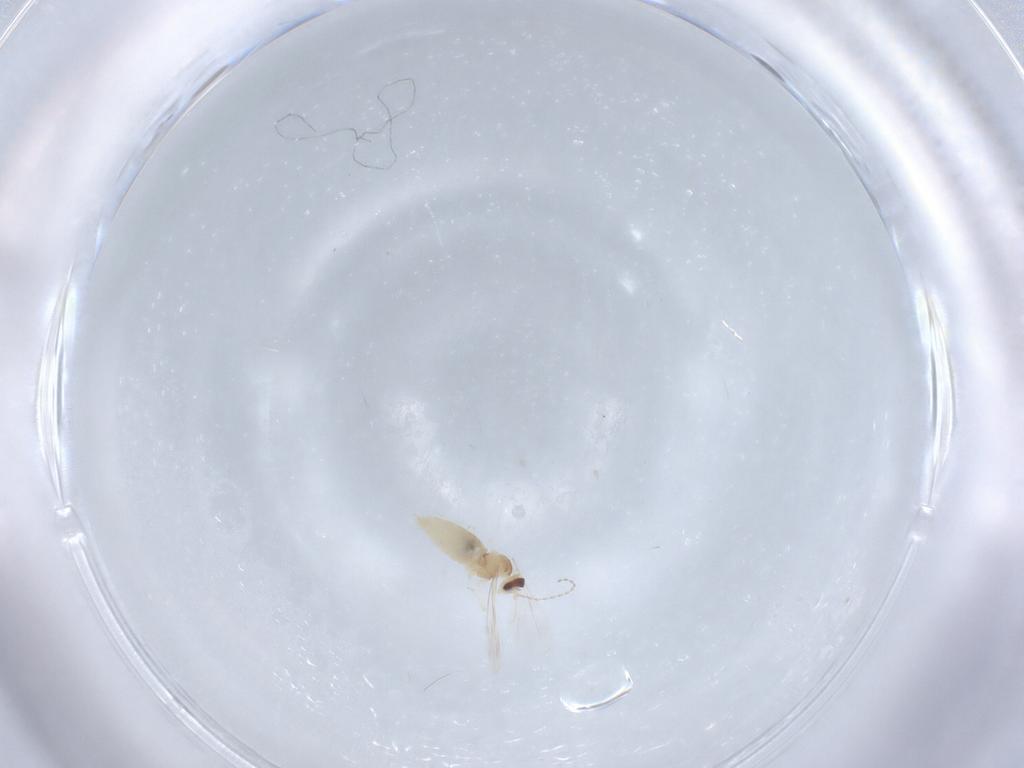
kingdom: Animalia
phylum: Arthropoda
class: Insecta
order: Diptera
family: Cecidomyiidae
